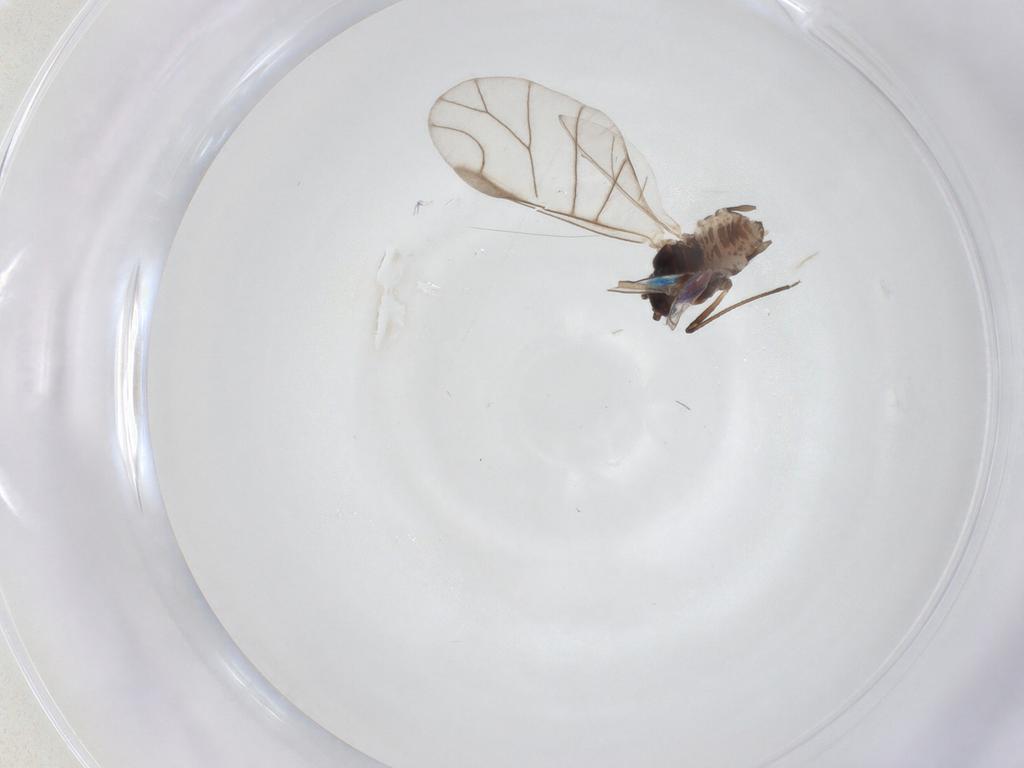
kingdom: Animalia
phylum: Arthropoda
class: Insecta
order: Hemiptera
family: Aphididae
